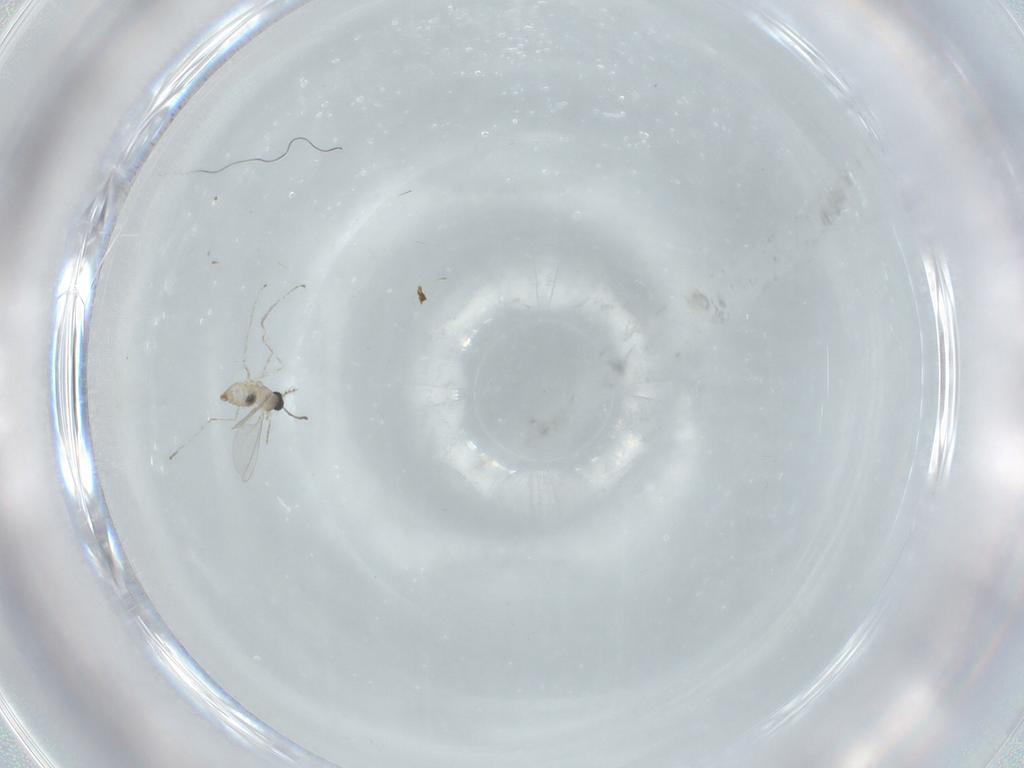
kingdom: Animalia
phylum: Arthropoda
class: Insecta
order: Diptera
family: Cecidomyiidae
